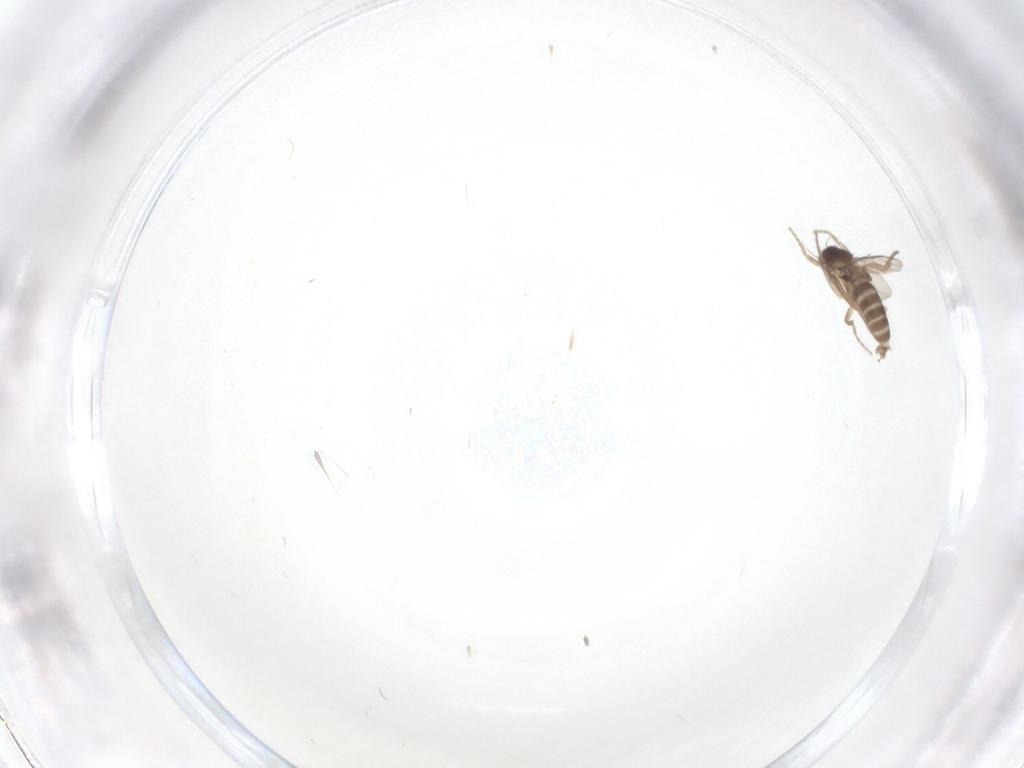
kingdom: Animalia
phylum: Arthropoda
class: Insecta
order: Diptera
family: Phoridae
